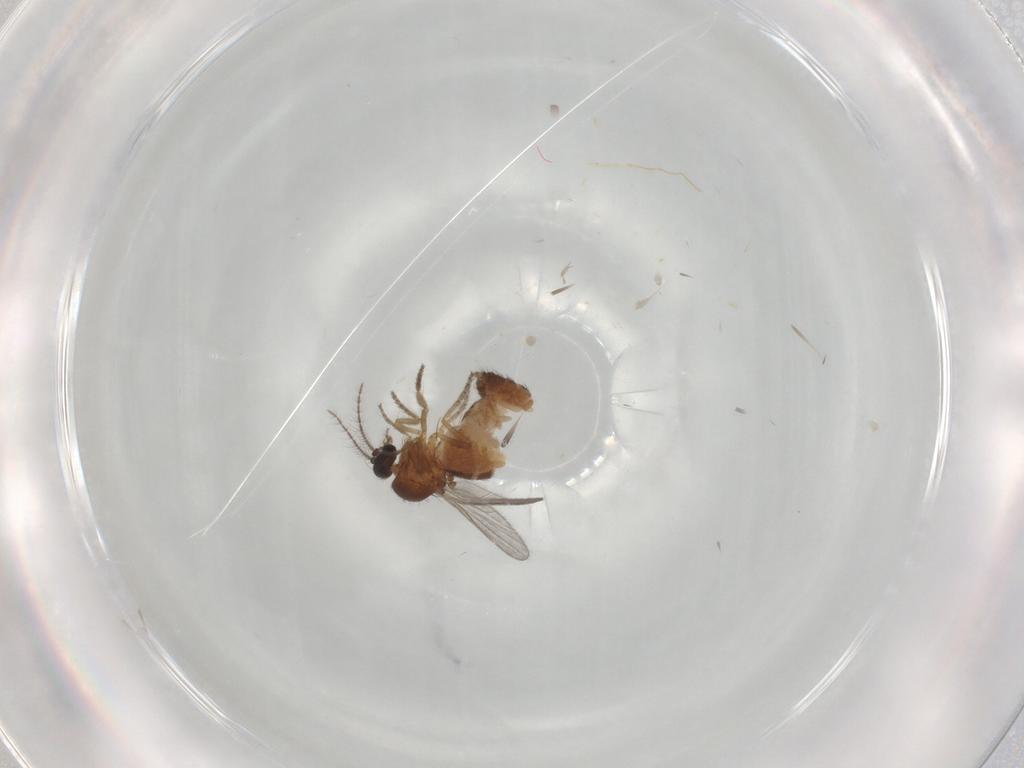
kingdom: Animalia
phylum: Arthropoda
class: Insecta
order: Diptera
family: Ceratopogonidae
